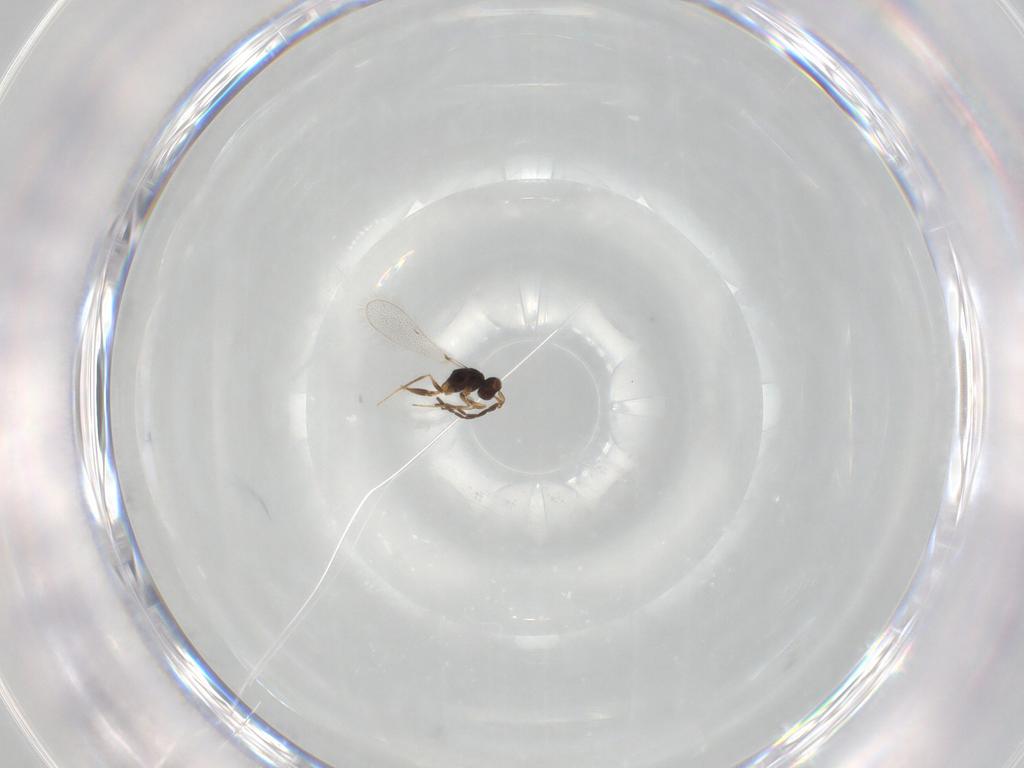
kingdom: Animalia
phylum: Arthropoda
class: Insecta
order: Hymenoptera
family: Mymaridae
